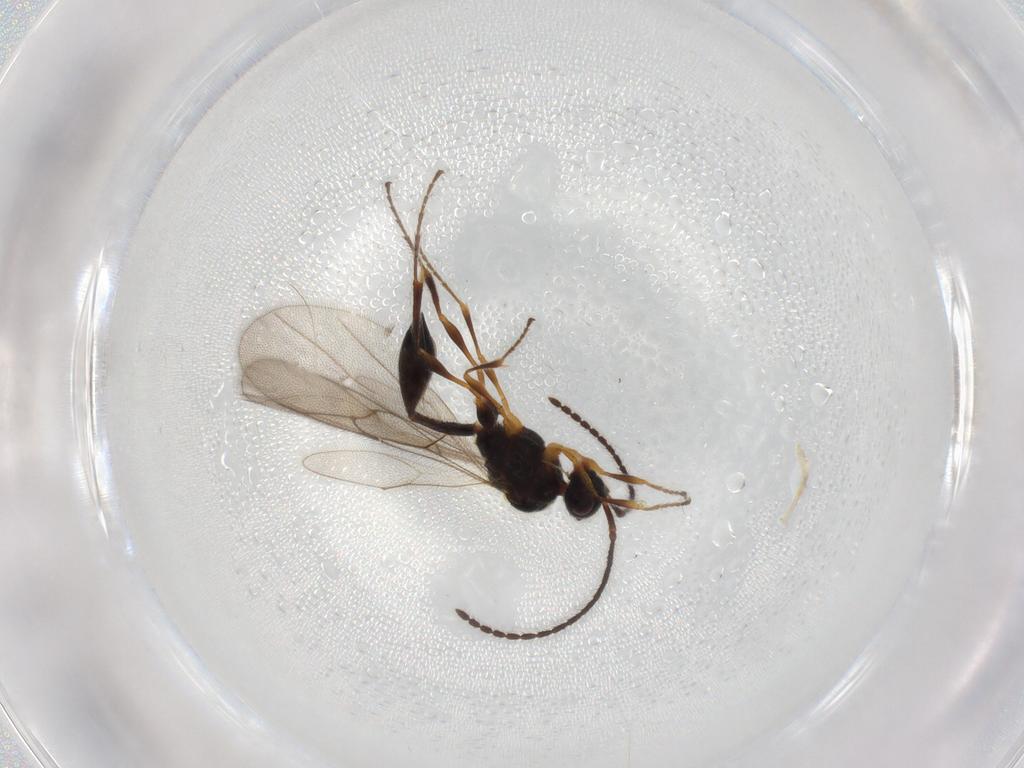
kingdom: Animalia
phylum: Arthropoda
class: Insecta
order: Hymenoptera
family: Diapriidae
